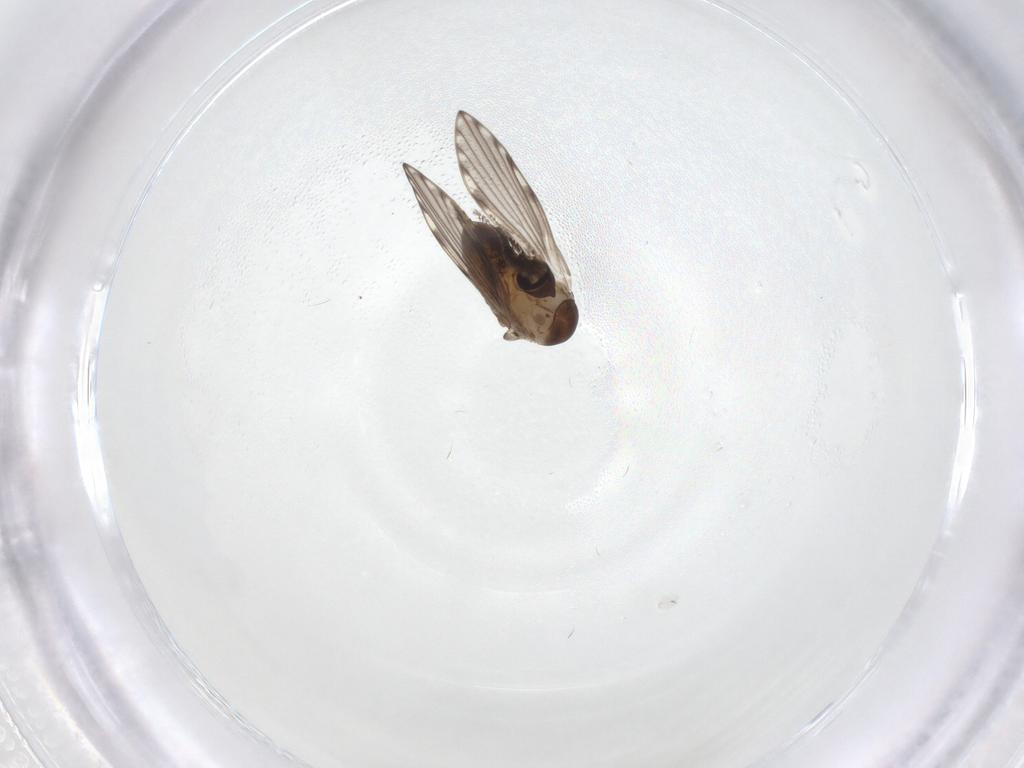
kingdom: Animalia
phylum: Arthropoda
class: Insecta
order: Diptera
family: Psychodidae
